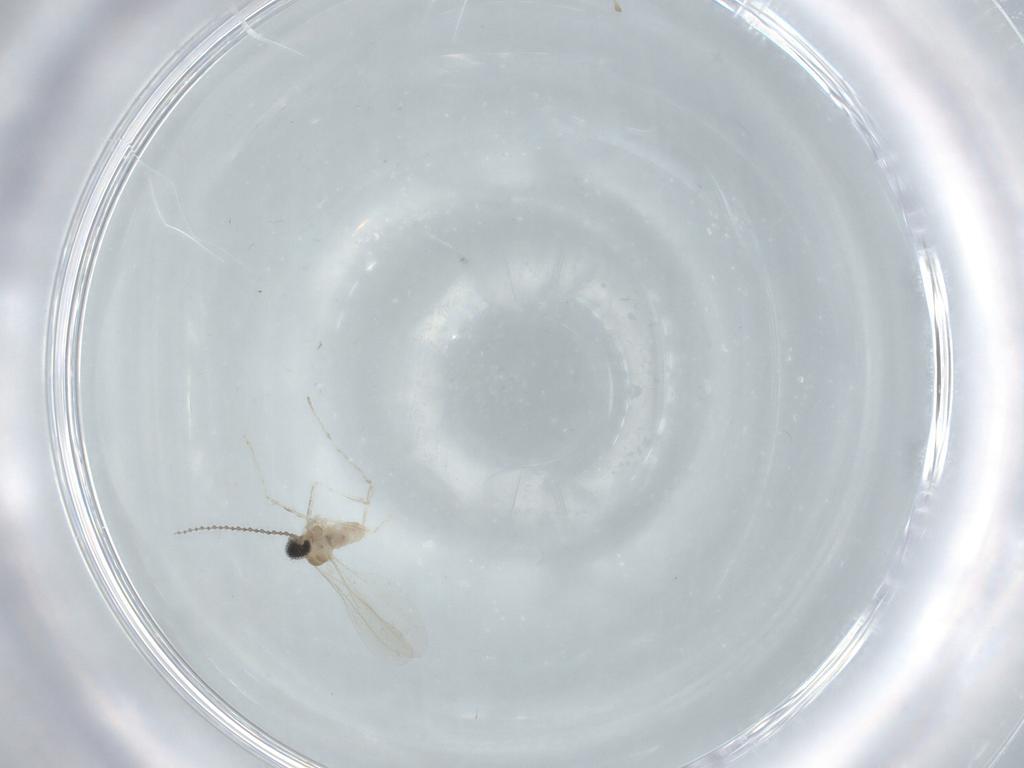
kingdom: Animalia
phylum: Arthropoda
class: Insecta
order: Diptera
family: Cecidomyiidae
